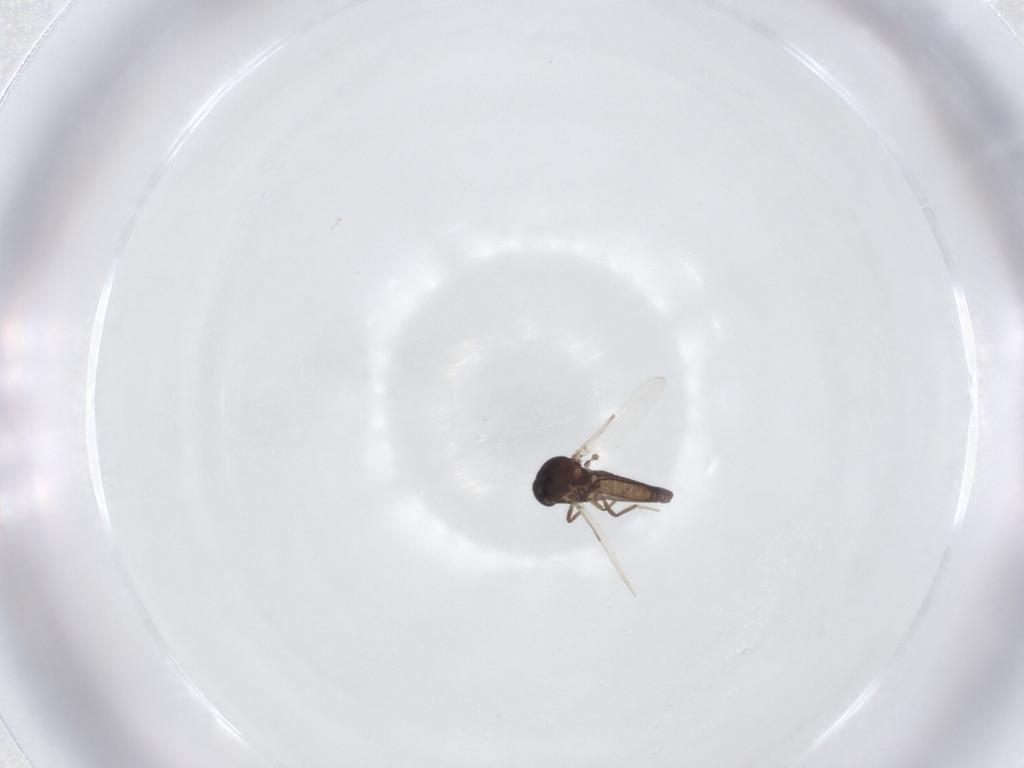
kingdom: Animalia
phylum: Arthropoda
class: Insecta
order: Diptera
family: Ceratopogonidae
